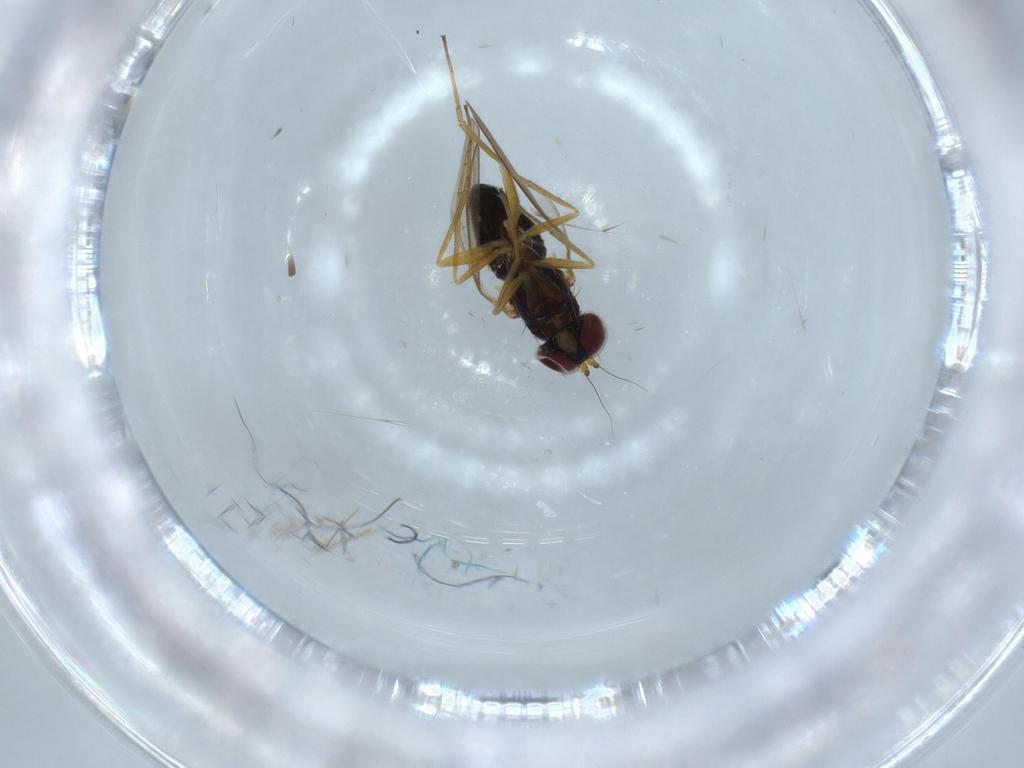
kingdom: Animalia
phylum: Arthropoda
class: Insecta
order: Diptera
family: Dolichopodidae
